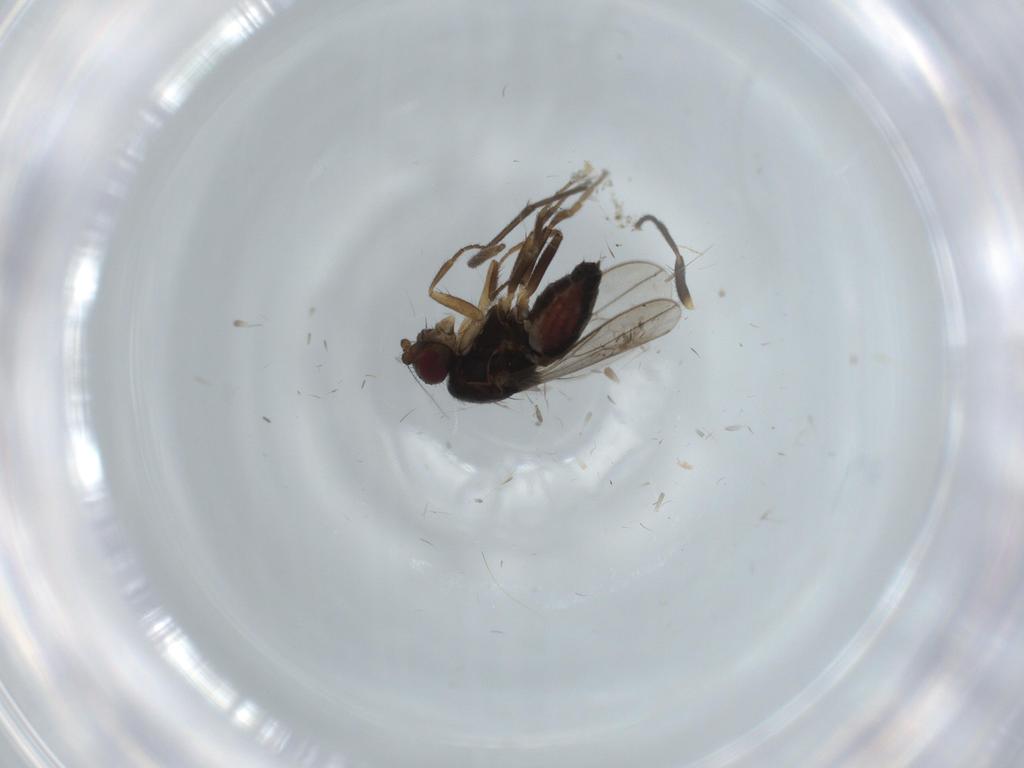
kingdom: Animalia
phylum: Arthropoda
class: Insecta
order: Diptera
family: Sphaeroceridae
